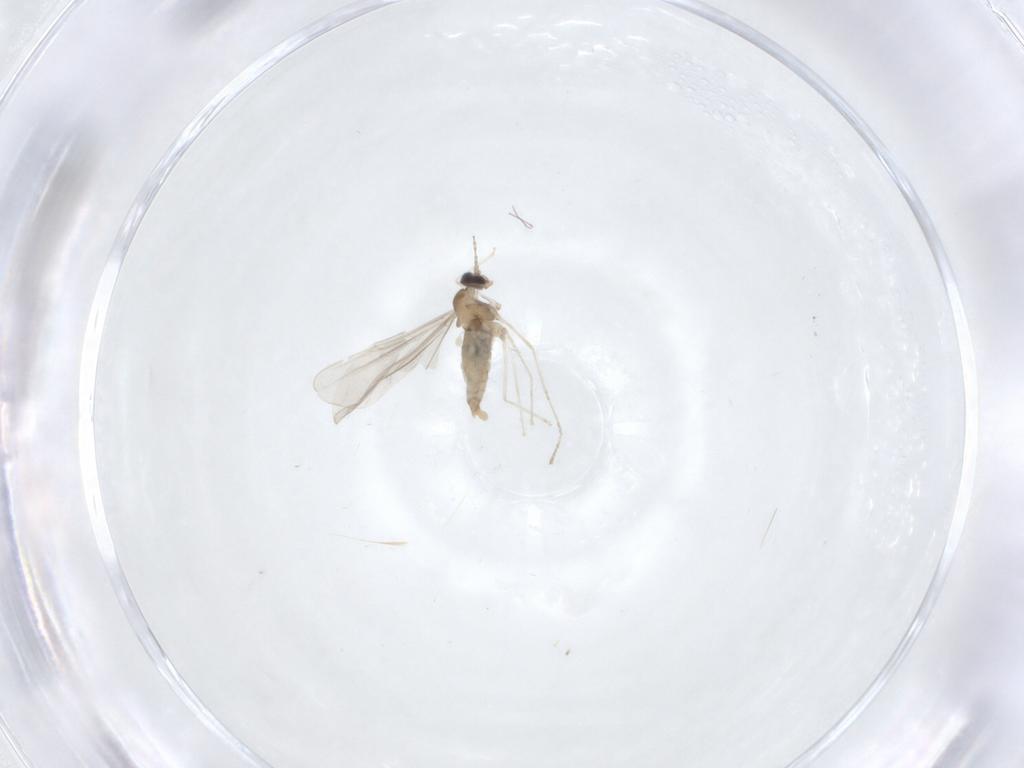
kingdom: Animalia
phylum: Arthropoda
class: Insecta
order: Diptera
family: Cecidomyiidae
